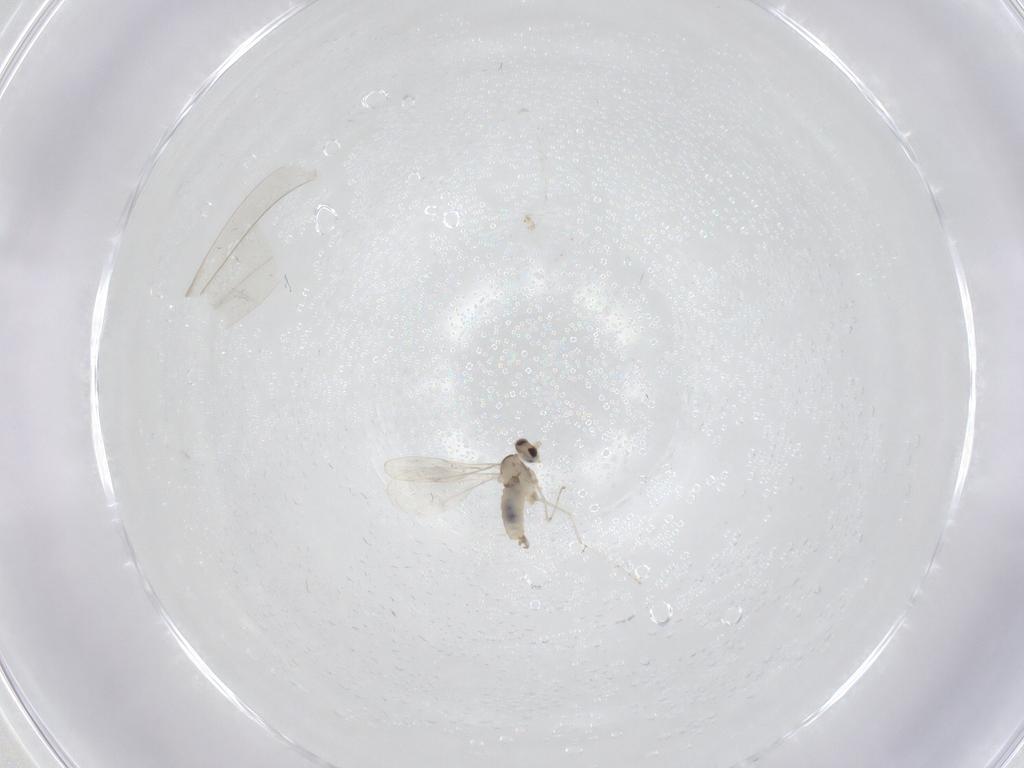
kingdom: Animalia
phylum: Arthropoda
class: Insecta
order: Diptera
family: Cecidomyiidae
